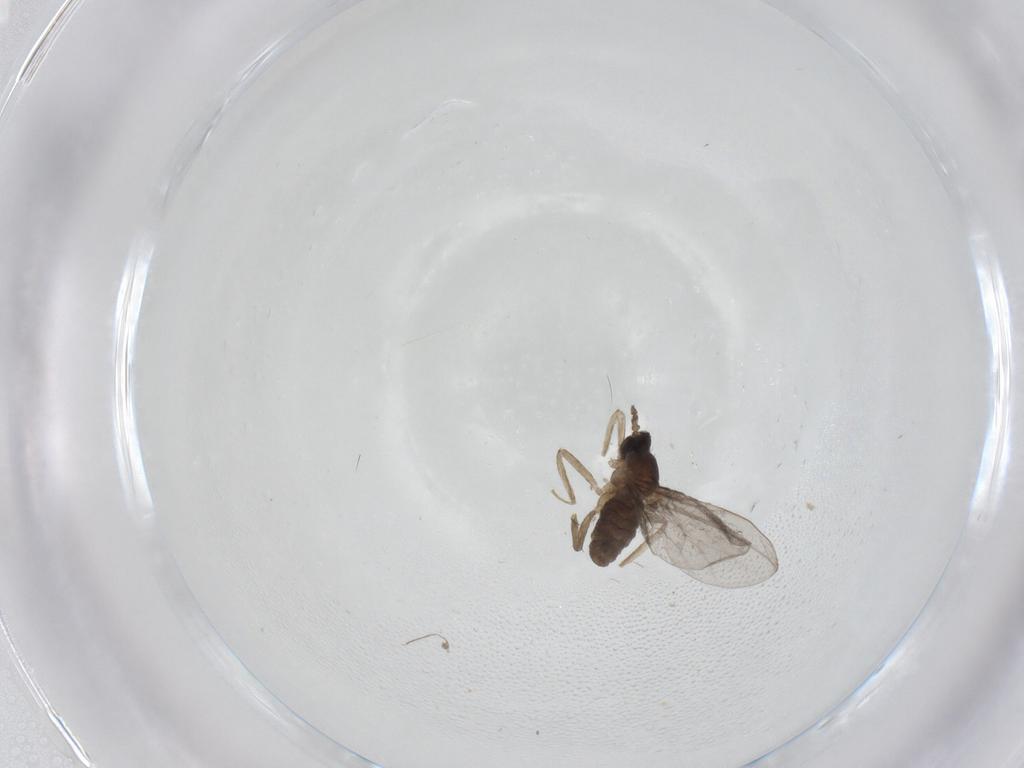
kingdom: Animalia
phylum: Arthropoda
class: Insecta
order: Diptera
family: Cecidomyiidae
